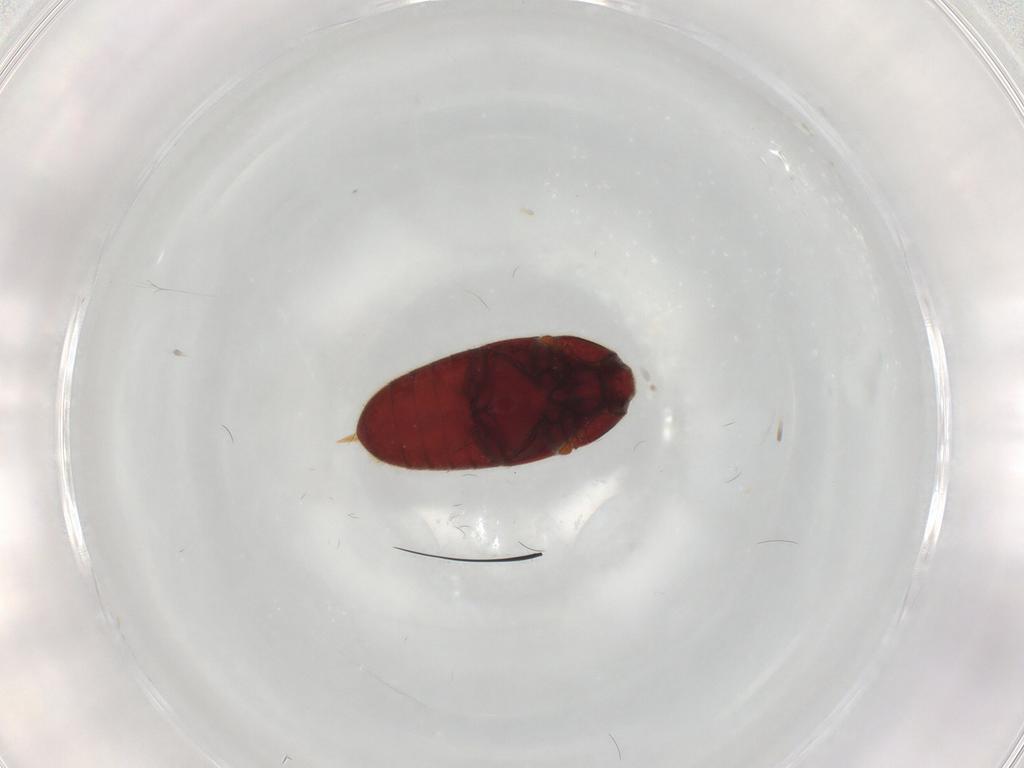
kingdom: Animalia
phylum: Arthropoda
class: Insecta
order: Coleoptera
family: Throscidae
